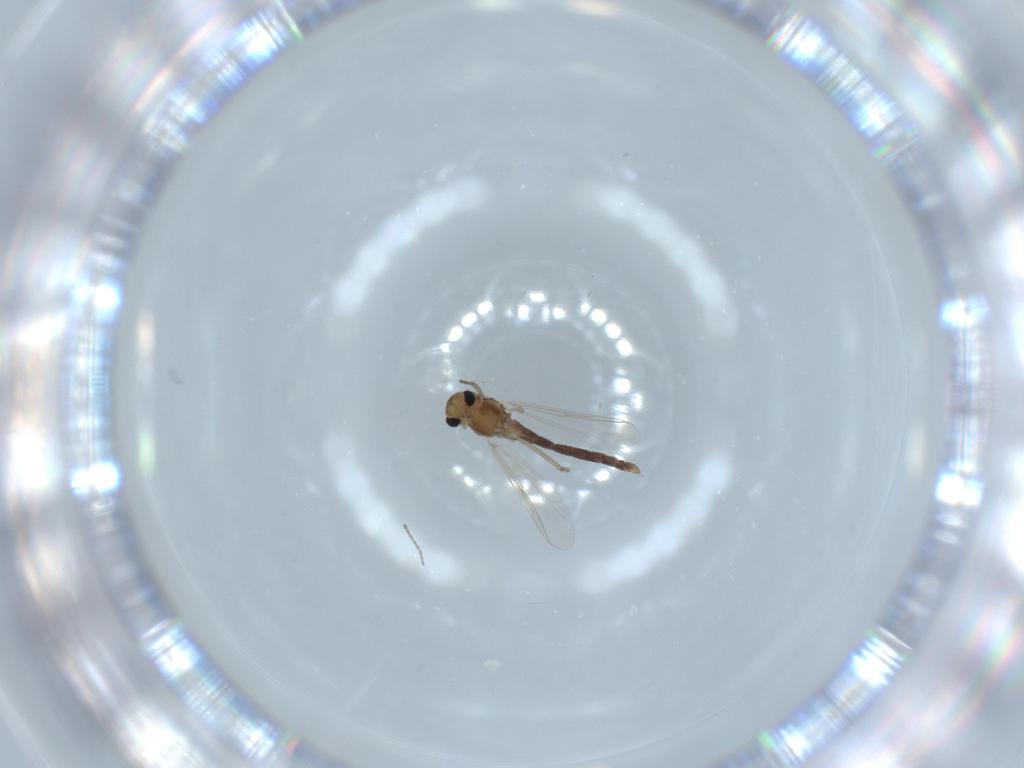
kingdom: Animalia
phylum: Arthropoda
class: Insecta
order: Diptera
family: Chironomidae
